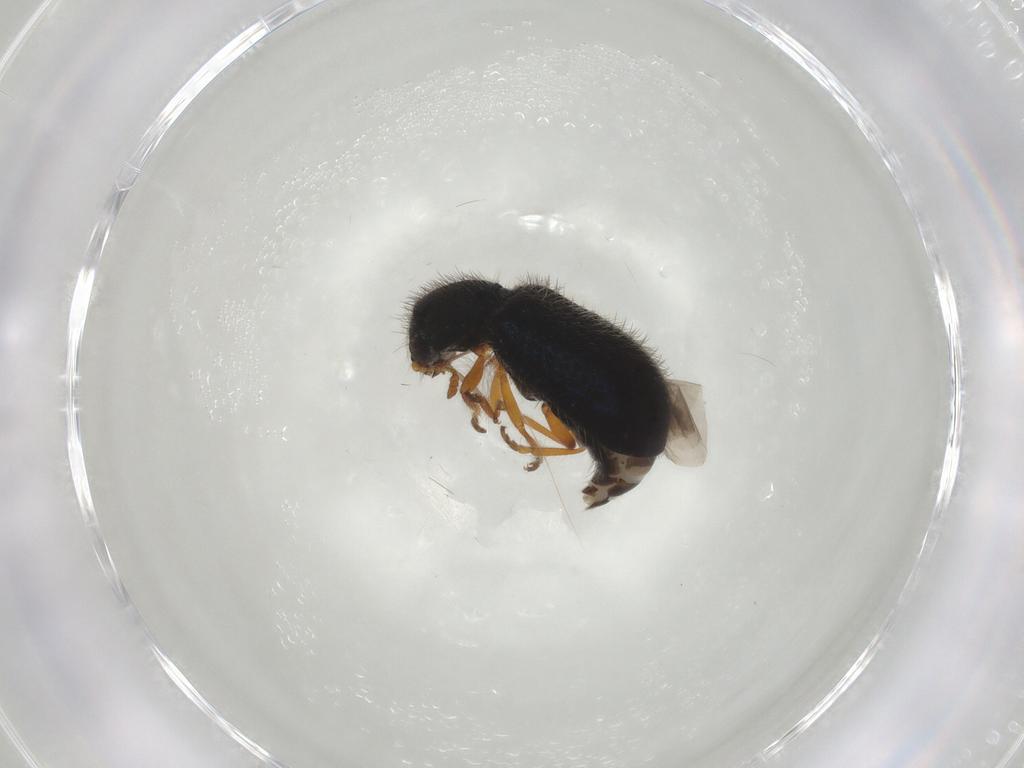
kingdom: Animalia
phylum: Arthropoda
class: Insecta
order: Coleoptera
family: Cleridae
